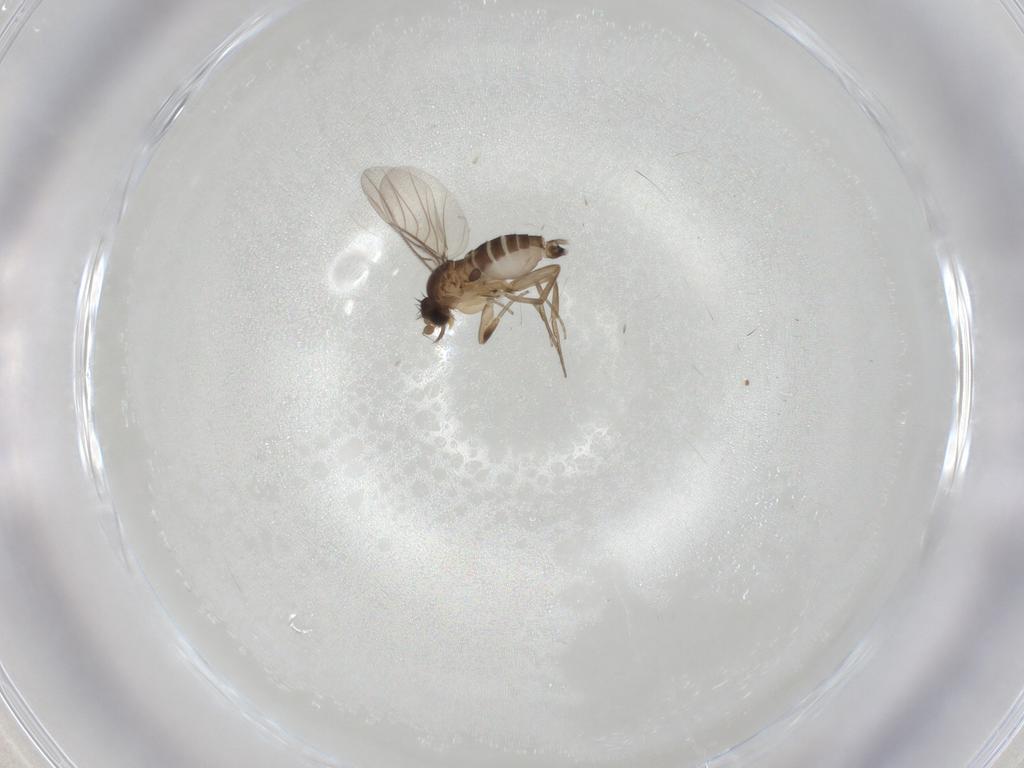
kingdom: Animalia
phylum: Arthropoda
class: Insecta
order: Diptera
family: Phoridae
